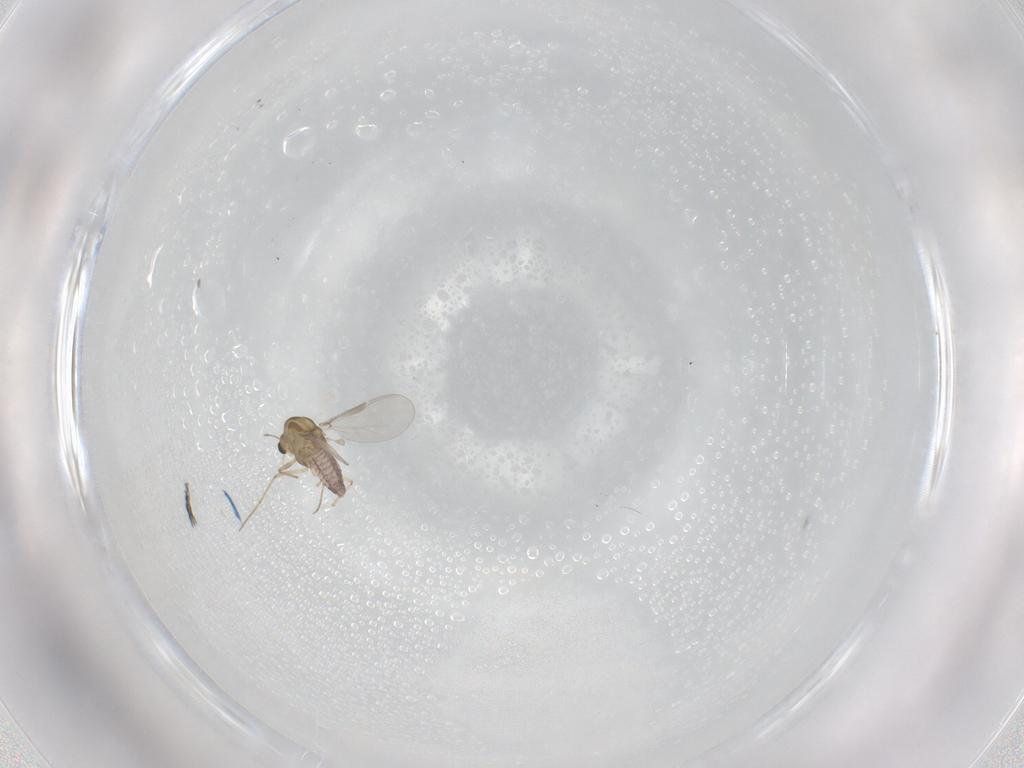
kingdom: Animalia
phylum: Arthropoda
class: Insecta
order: Diptera
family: Chironomidae
